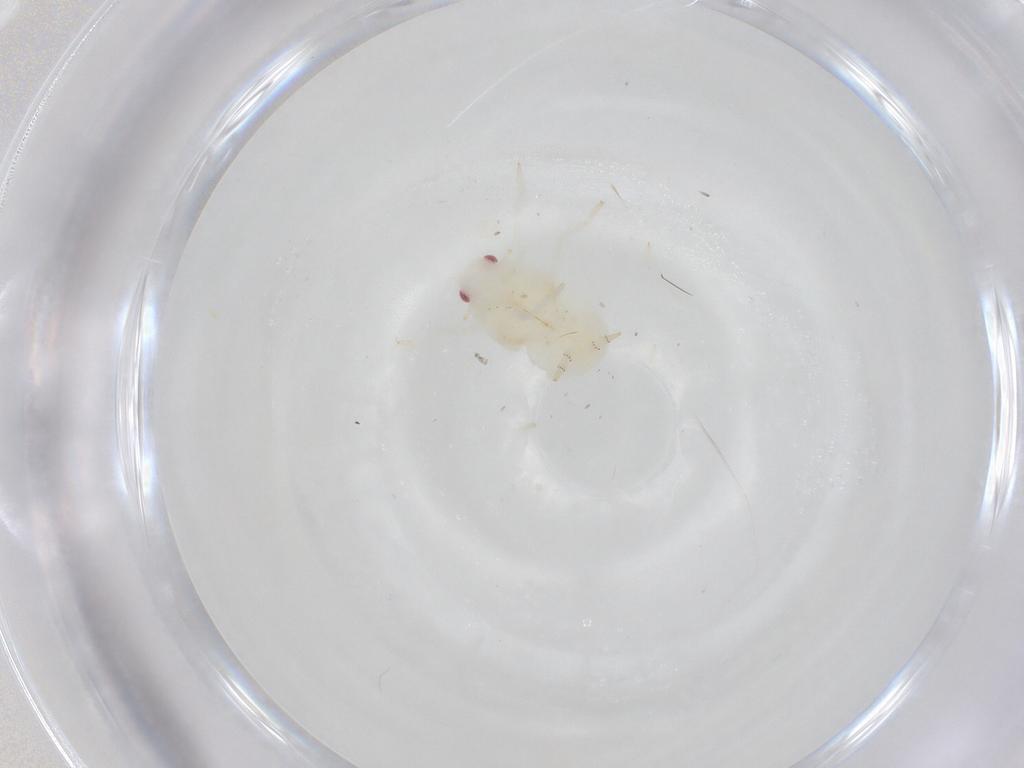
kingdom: Animalia
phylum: Arthropoda
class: Insecta
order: Hemiptera
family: Flatidae
